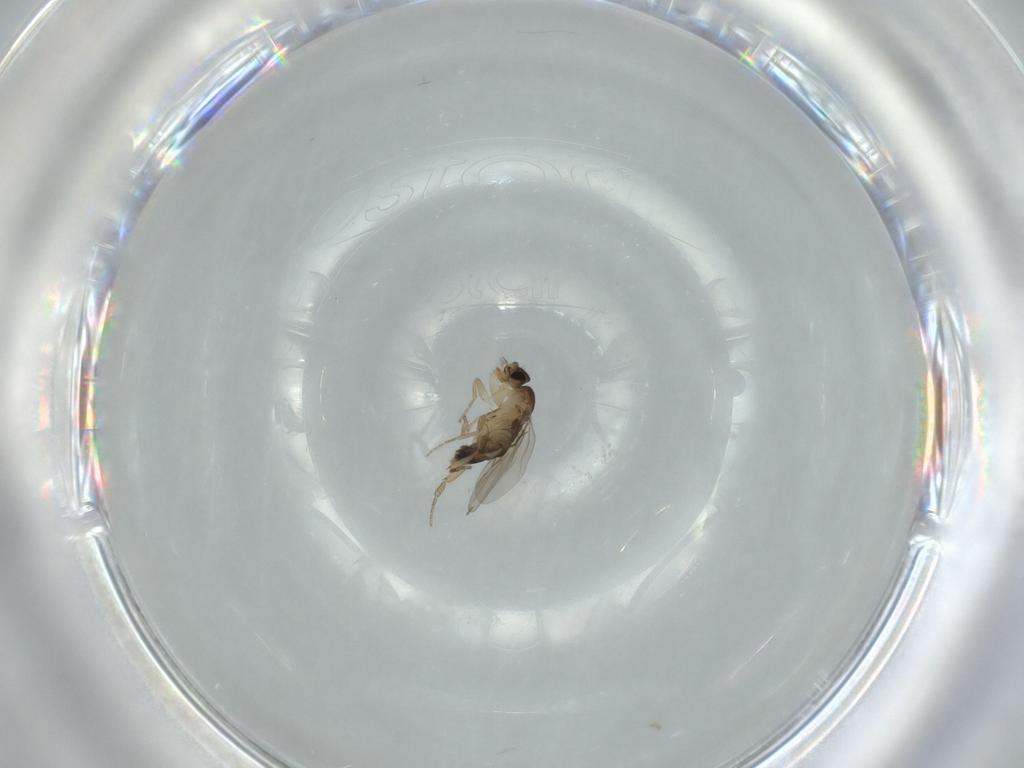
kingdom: Animalia
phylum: Arthropoda
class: Insecta
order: Diptera
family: Phoridae
